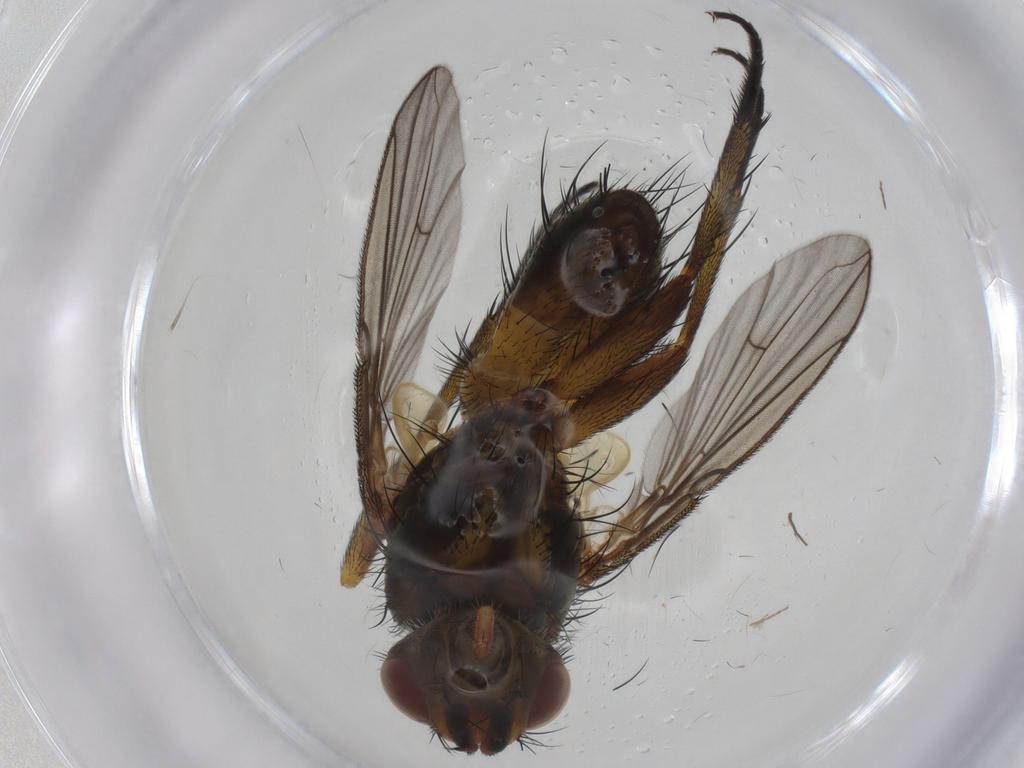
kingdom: Animalia
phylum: Arthropoda
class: Insecta
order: Diptera
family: Tachinidae
